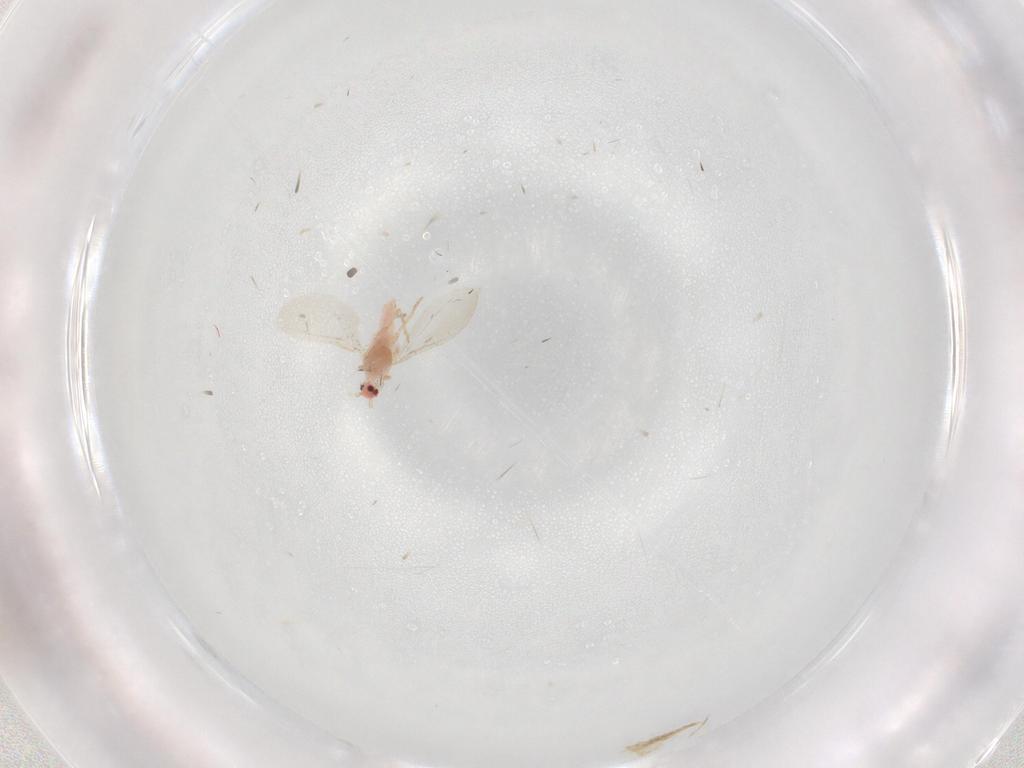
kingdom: Animalia
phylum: Arthropoda
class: Insecta
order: Hemiptera
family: Pseudococcidae
